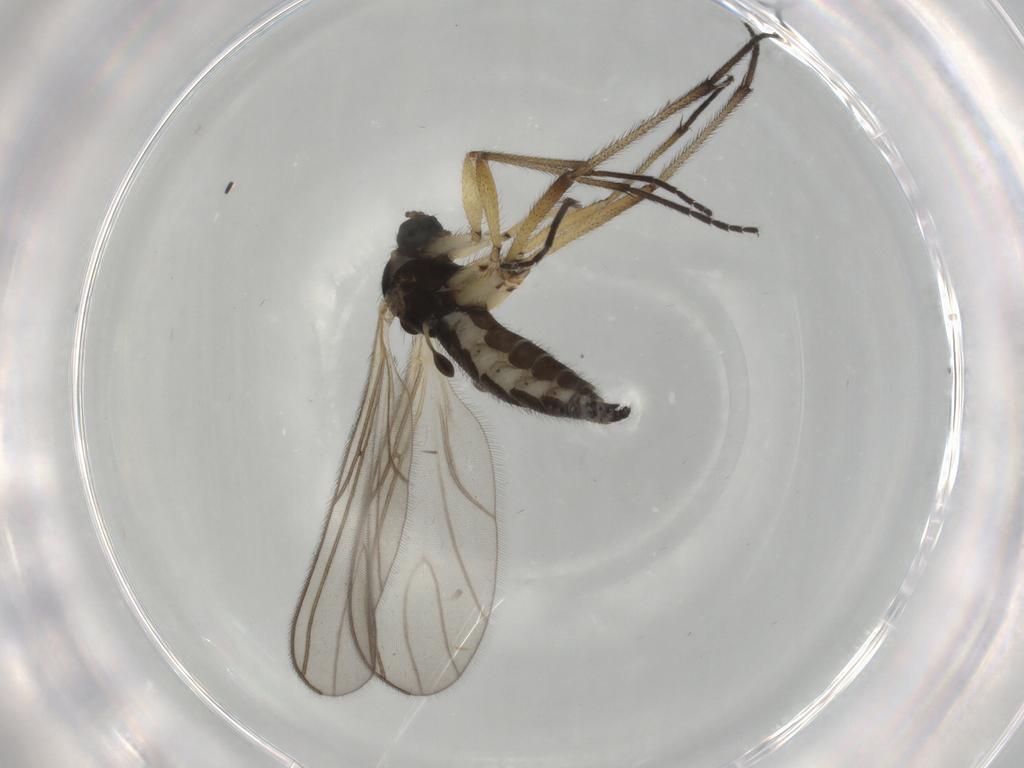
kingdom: Animalia
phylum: Arthropoda
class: Insecta
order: Diptera
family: Sciaridae
